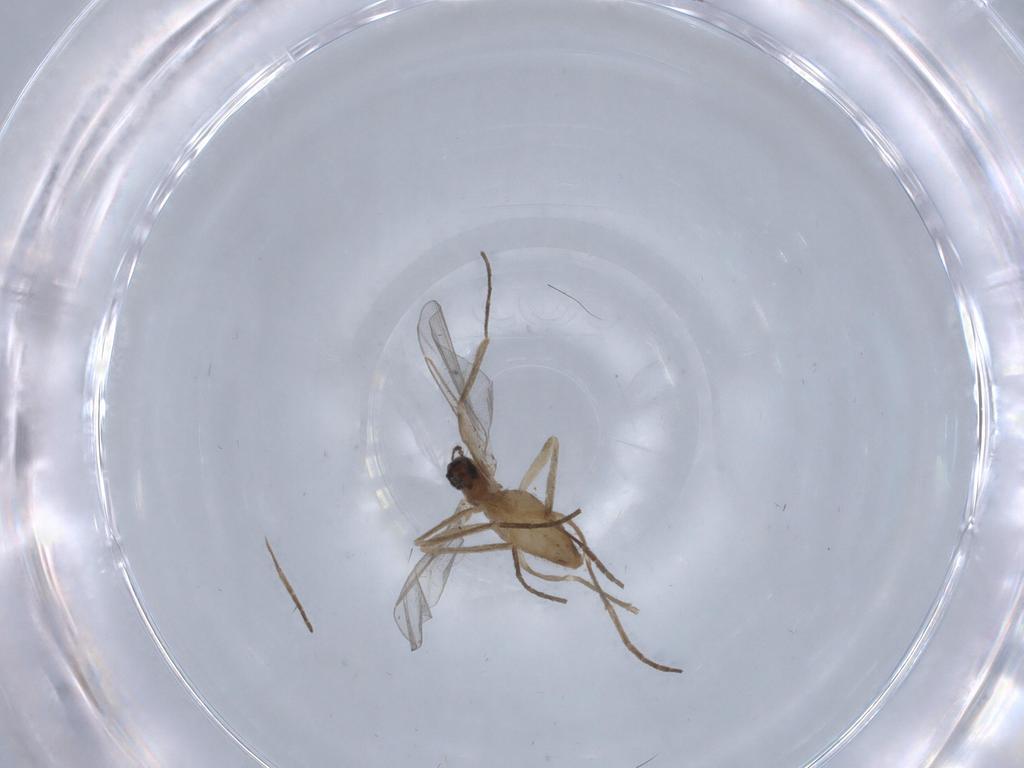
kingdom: Animalia
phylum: Arthropoda
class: Insecta
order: Diptera
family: Cecidomyiidae
